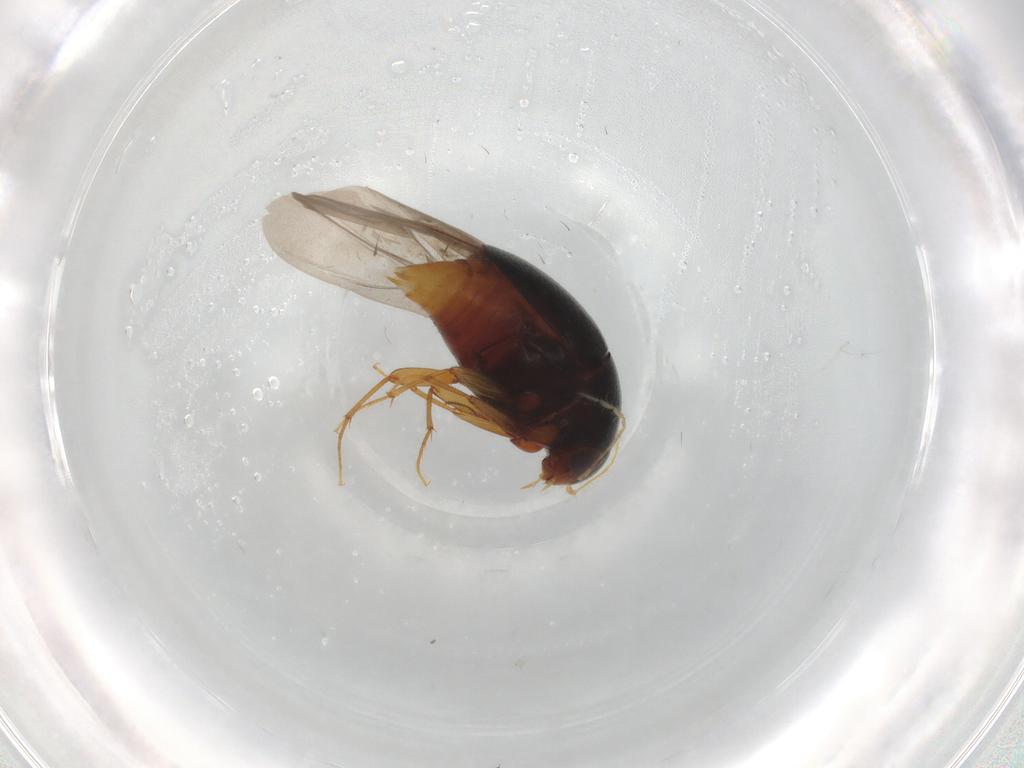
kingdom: Animalia
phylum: Arthropoda
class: Insecta
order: Coleoptera
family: Staphylinidae
